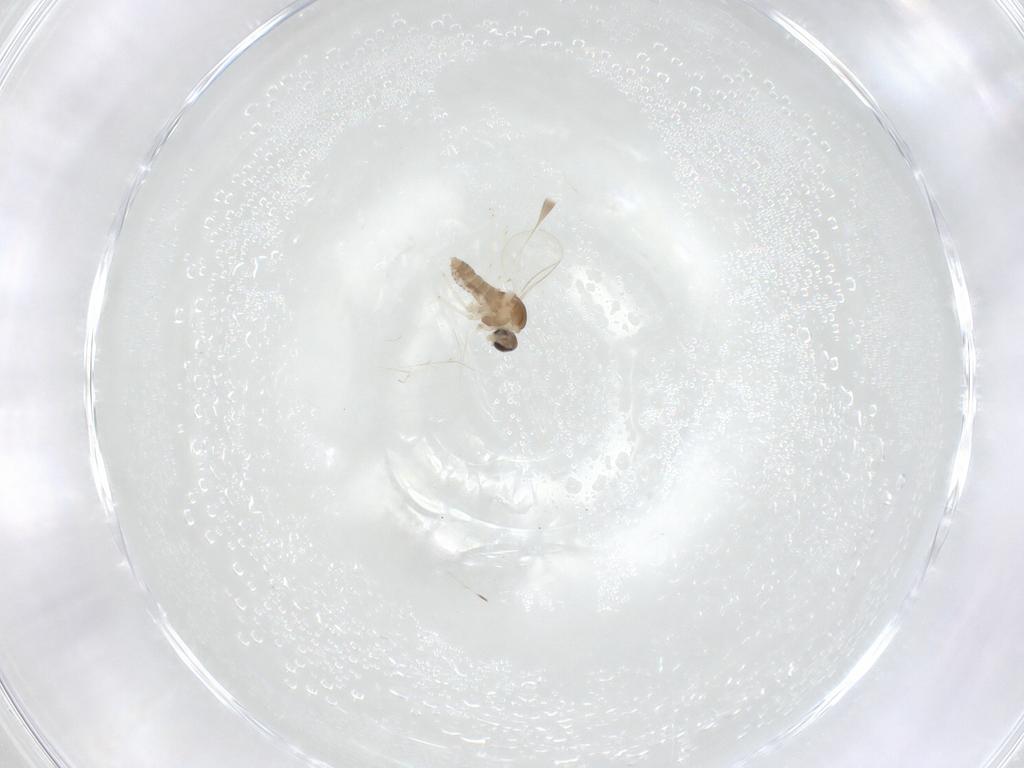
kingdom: Animalia
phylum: Arthropoda
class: Insecta
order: Diptera
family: Cecidomyiidae
